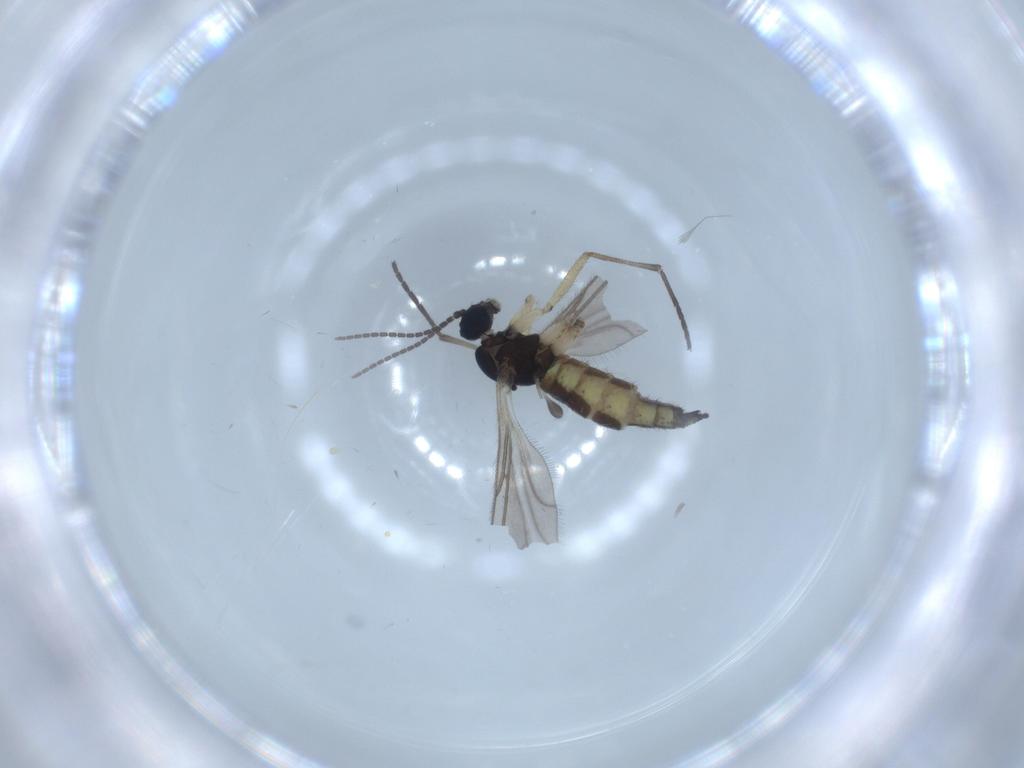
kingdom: Animalia
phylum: Arthropoda
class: Insecta
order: Diptera
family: Sciaridae
